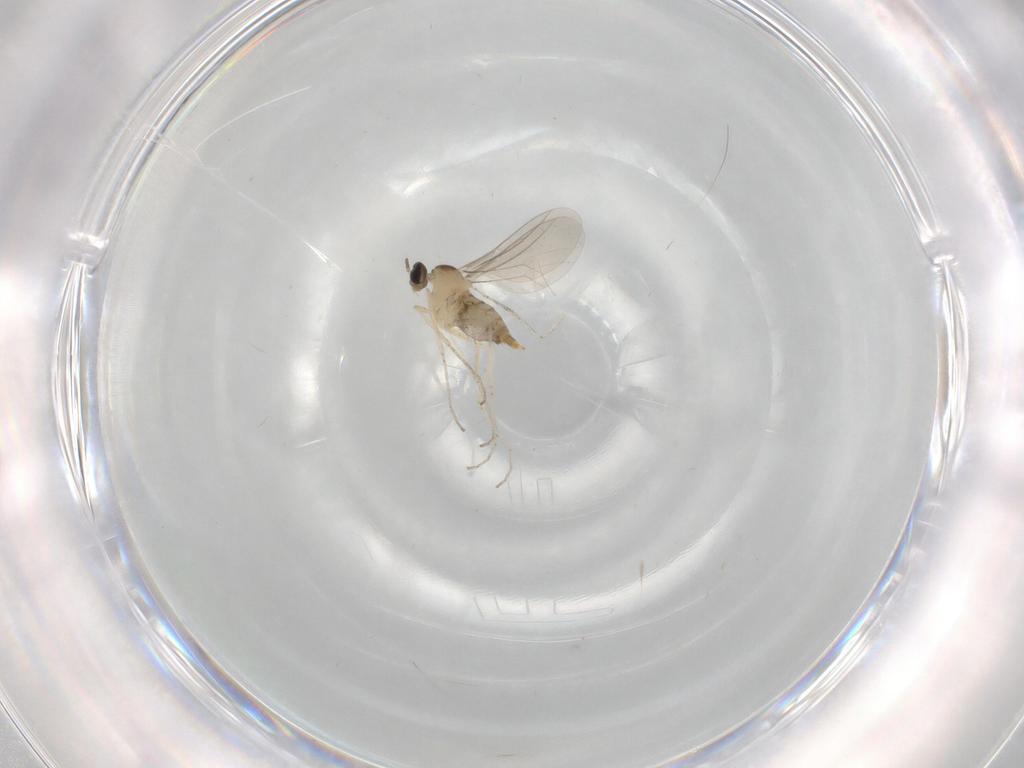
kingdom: Animalia
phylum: Arthropoda
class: Insecta
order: Diptera
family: Cecidomyiidae
